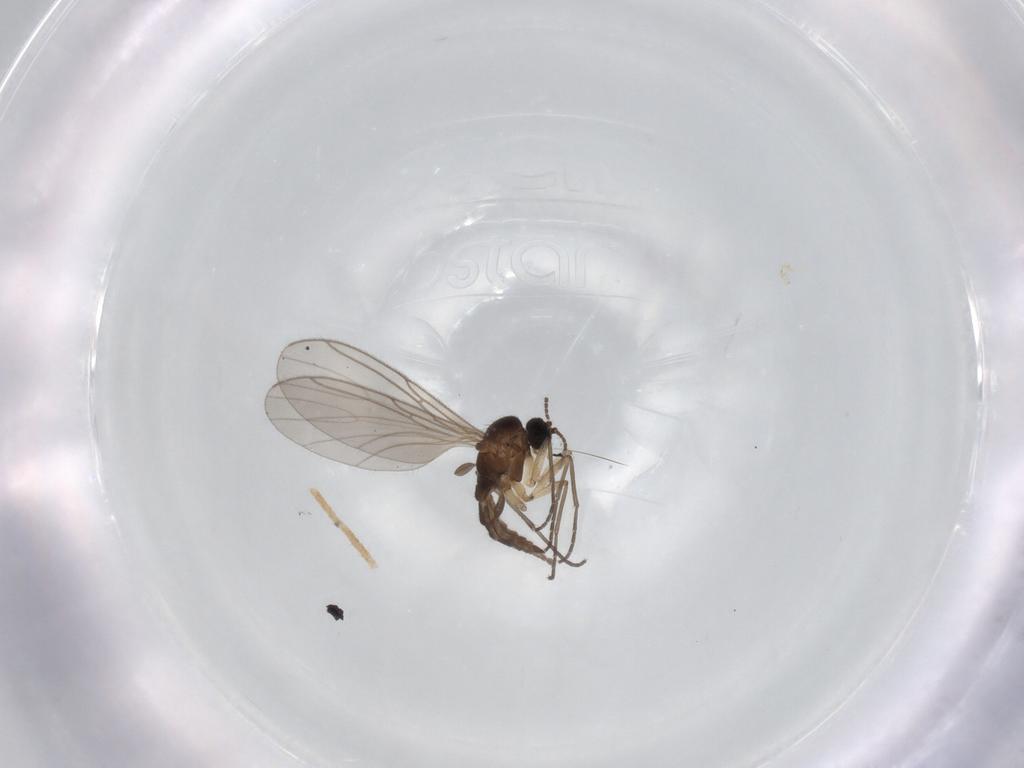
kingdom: Animalia
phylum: Arthropoda
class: Insecta
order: Diptera
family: Sciaridae
